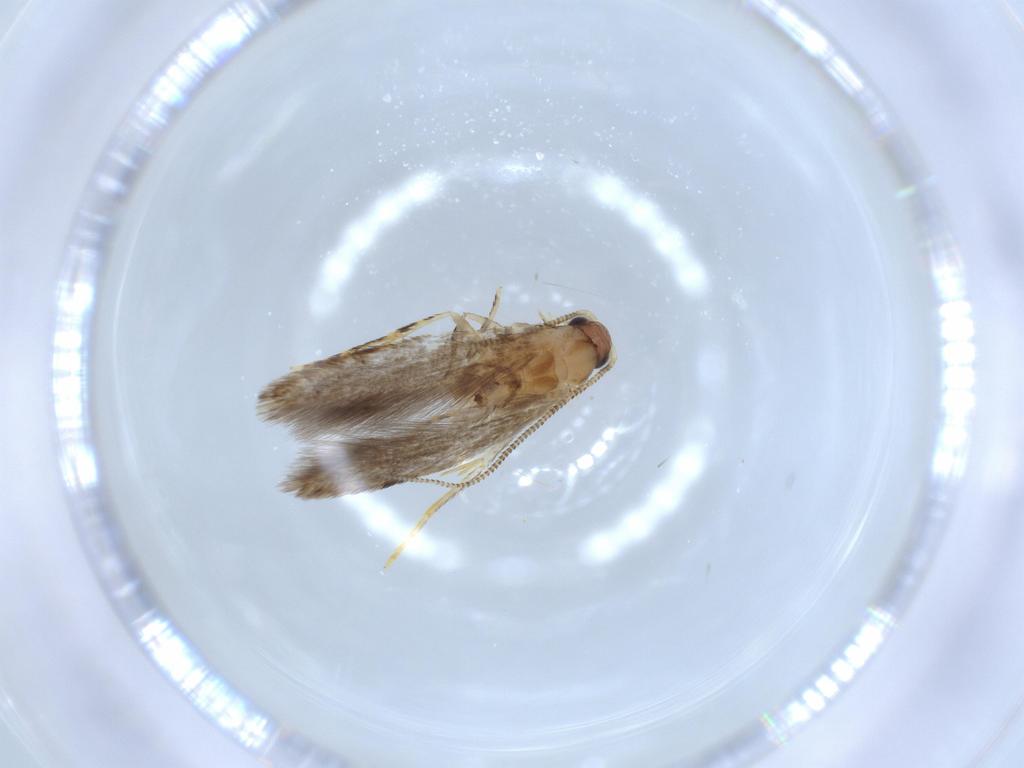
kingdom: Animalia
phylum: Arthropoda
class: Insecta
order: Lepidoptera
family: Tineidae
